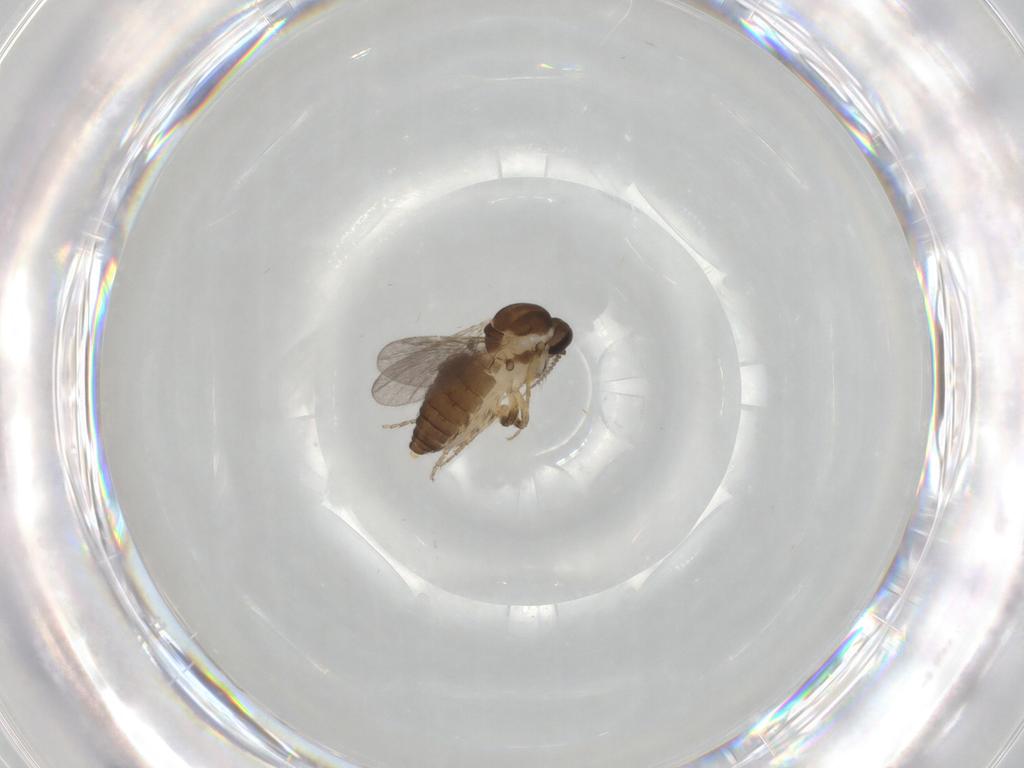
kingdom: Animalia
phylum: Arthropoda
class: Insecta
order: Diptera
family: Ceratopogonidae
